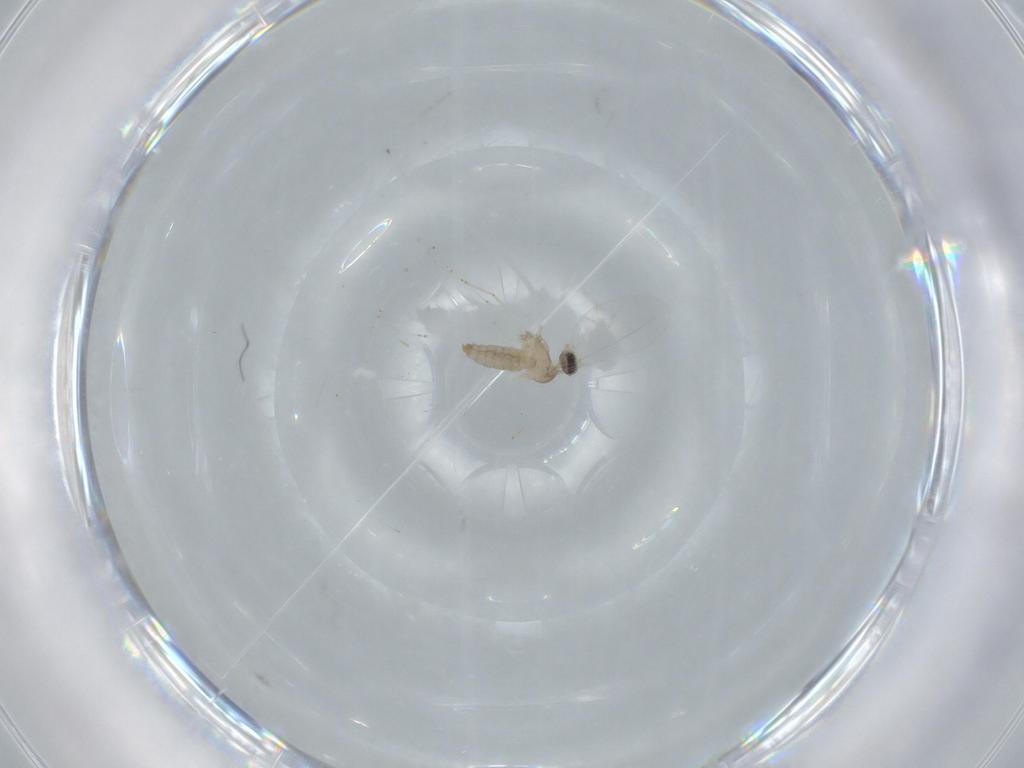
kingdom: Animalia
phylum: Arthropoda
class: Insecta
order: Diptera
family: Cecidomyiidae
